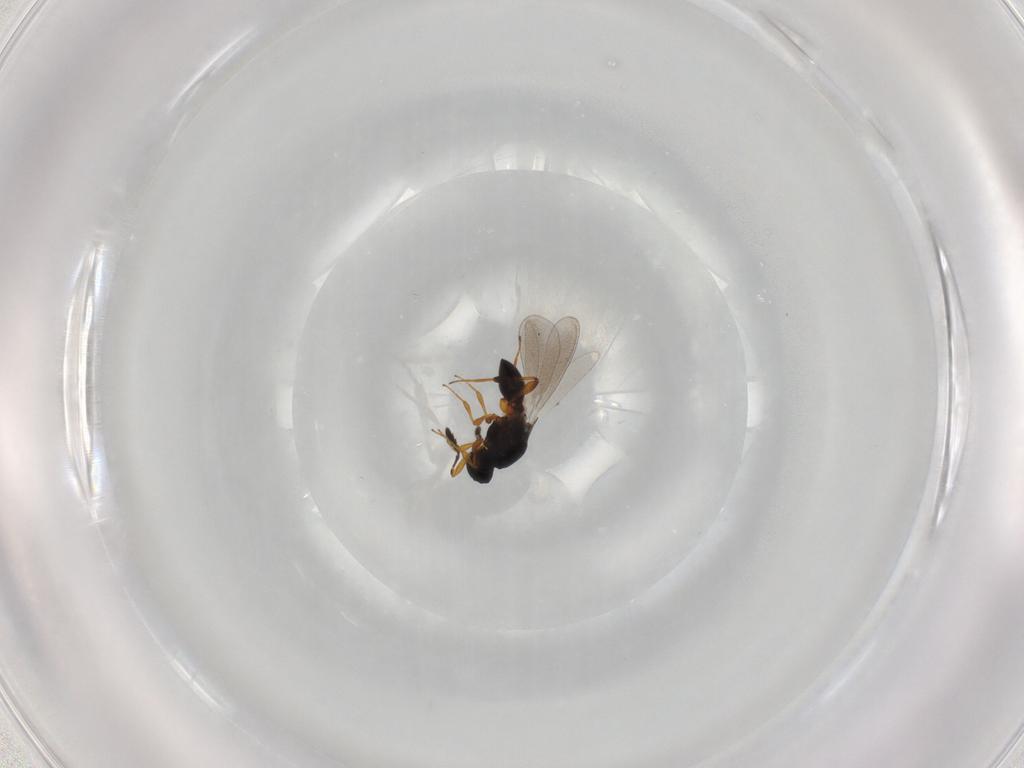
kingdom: Animalia
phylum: Arthropoda
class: Insecta
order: Hymenoptera
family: Platygastridae
